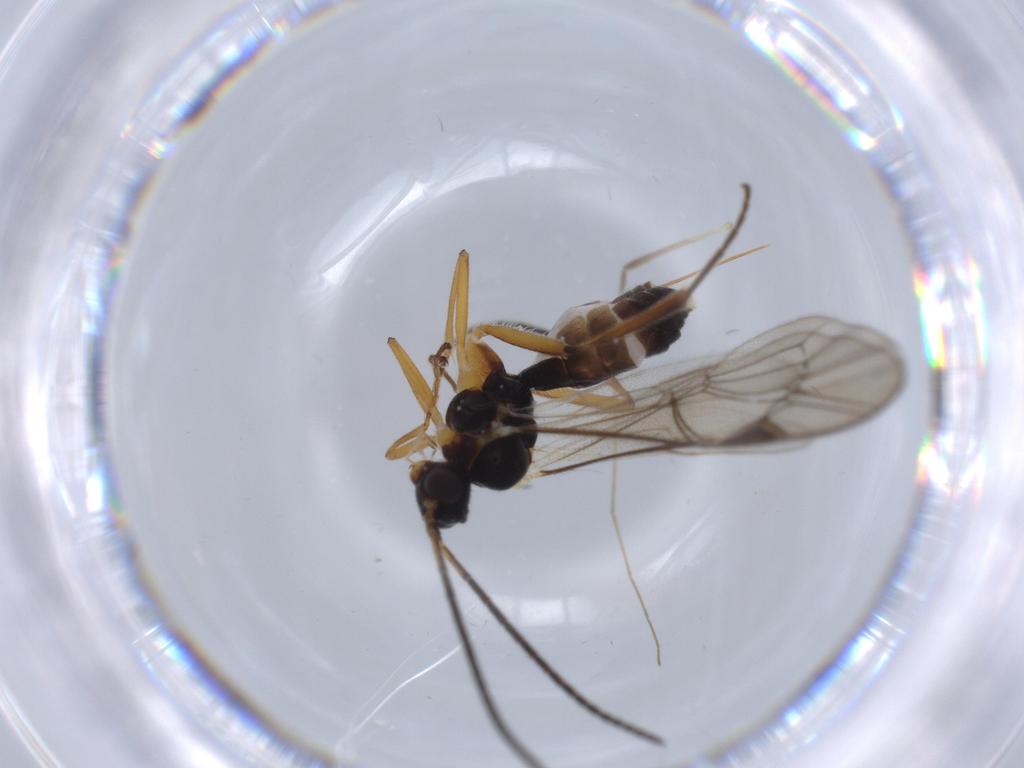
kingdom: Animalia
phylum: Arthropoda
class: Insecta
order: Hymenoptera
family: Ichneumonidae
